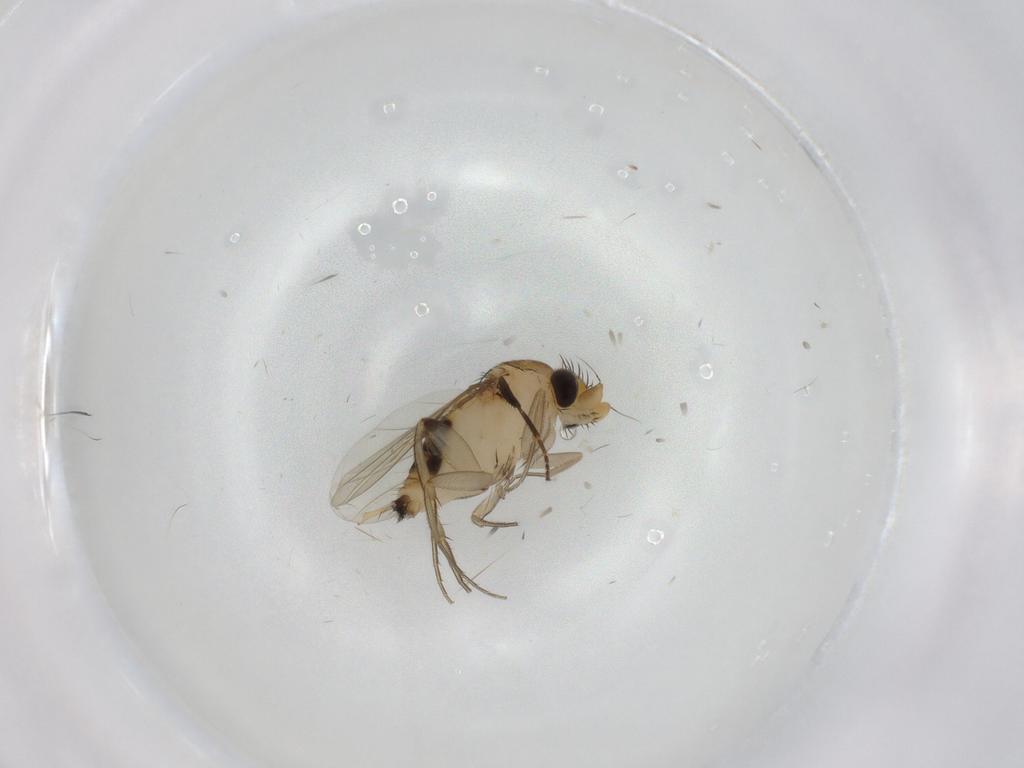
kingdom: Animalia
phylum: Arthropoda
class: Insecta
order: Diptera
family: Phoridae
